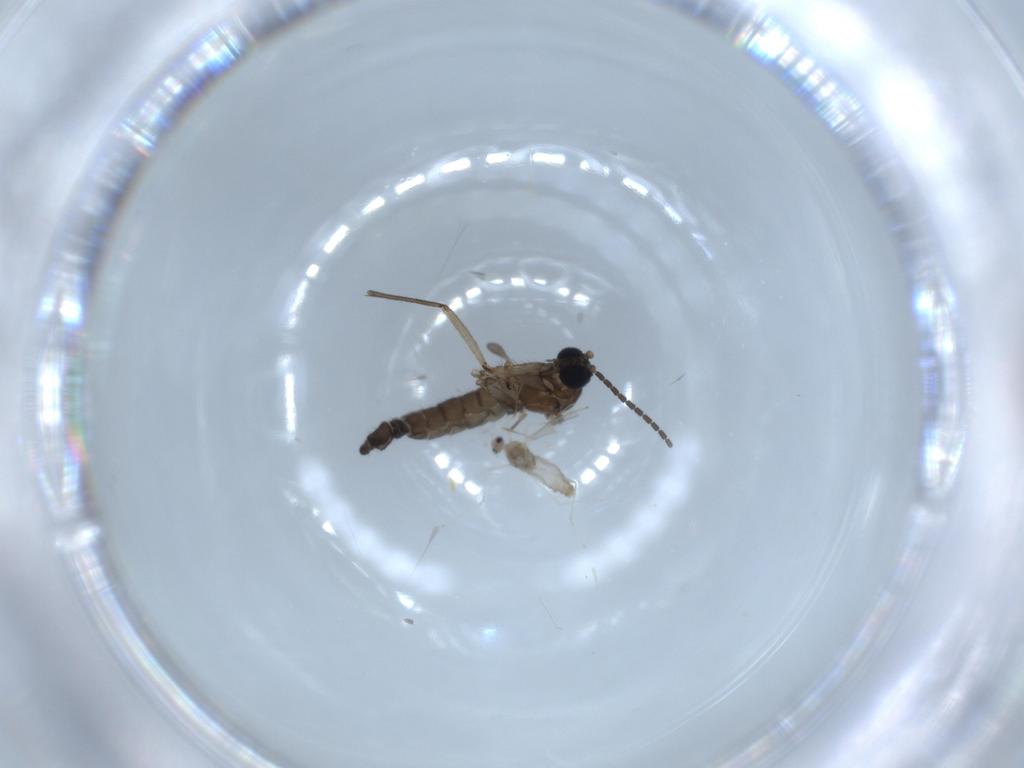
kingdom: Animalia
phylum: Arthropoda
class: Insecta
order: Diptera
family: Cecidomyiidae
